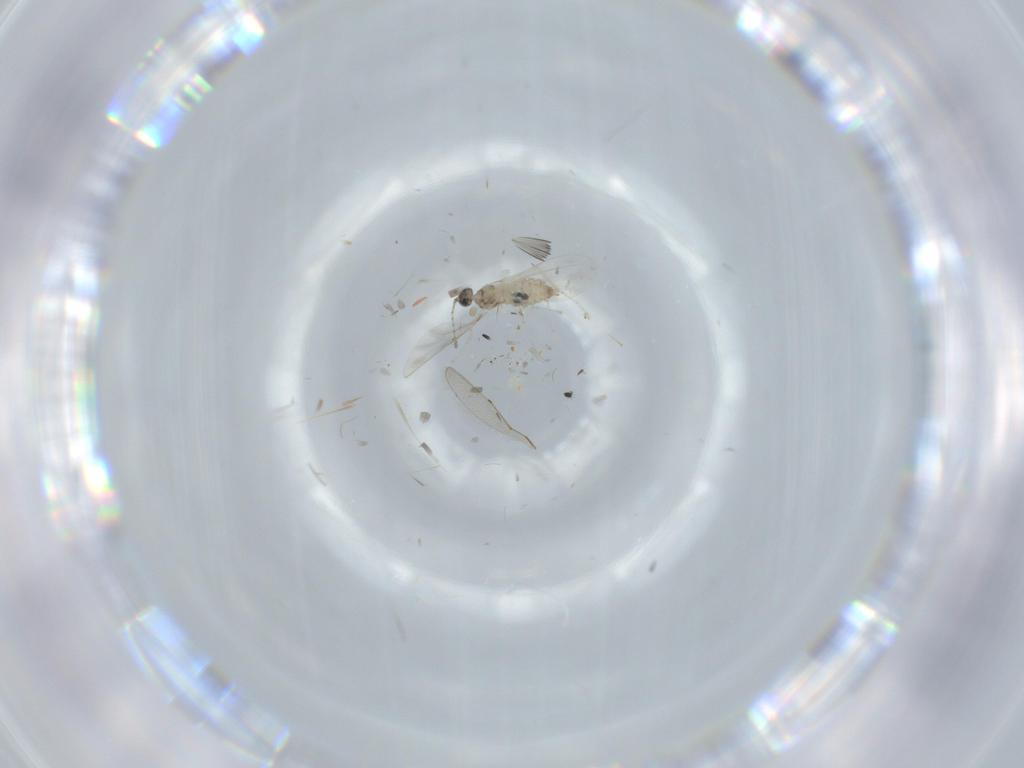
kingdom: Animalia
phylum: Arthropoda
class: Insecta
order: Diptera
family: Cecidomyiidae
